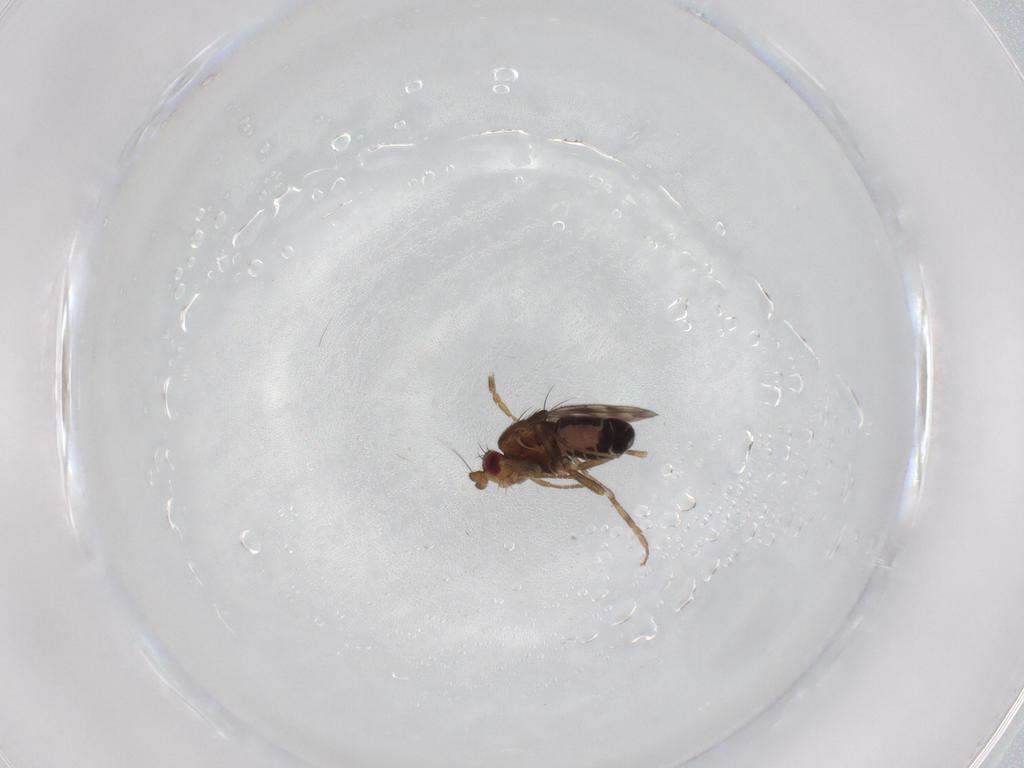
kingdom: Animalia
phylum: Arthropoda
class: Insecta
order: Diptera
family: Sphaeroceridae
